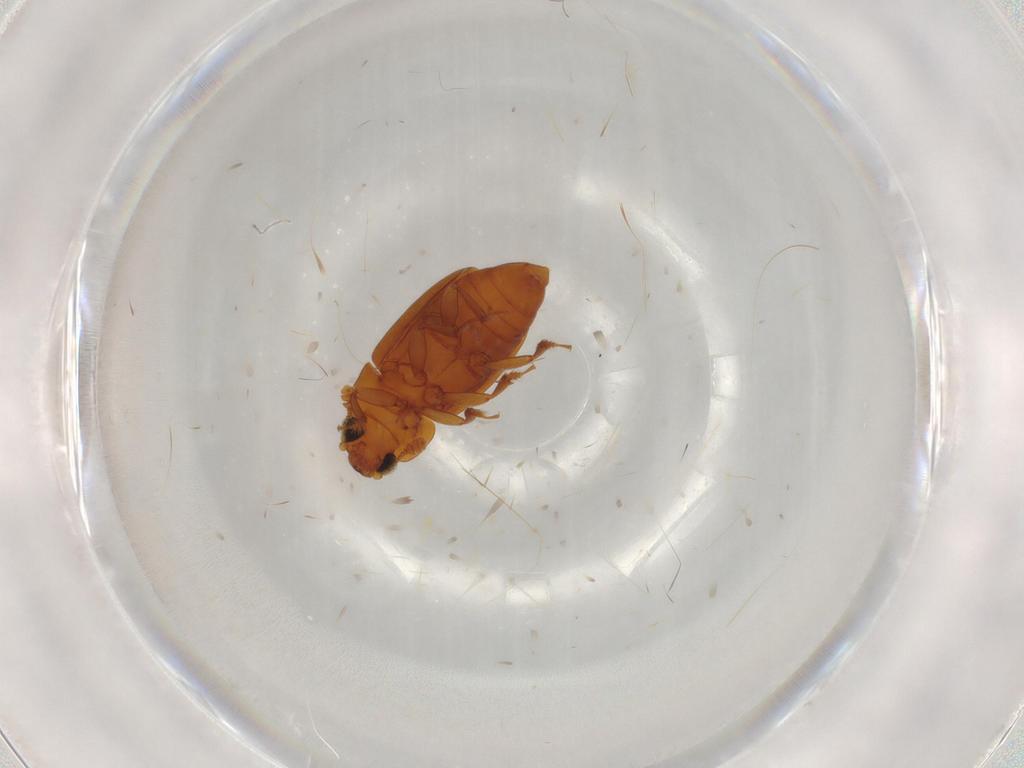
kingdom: Animalia
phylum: Arthropoda
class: Insecta
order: Coleoptera
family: Nitidulidae
